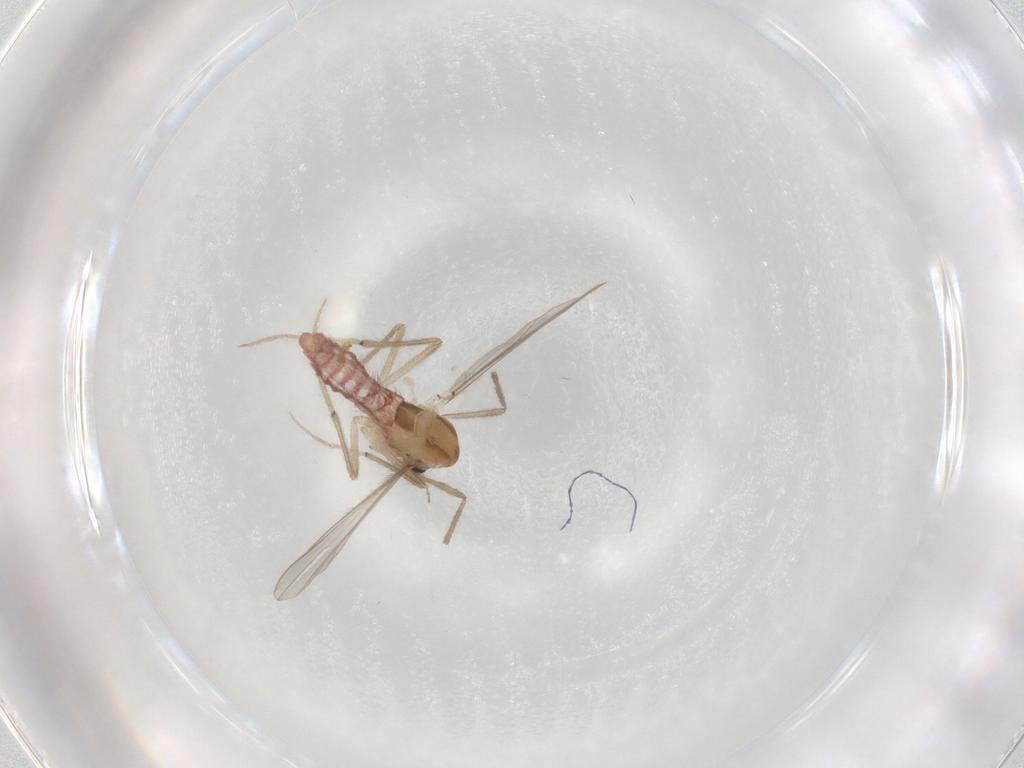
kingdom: Animalia
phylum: Arthropoda
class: Insecta
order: Diptera
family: Chironomidae
